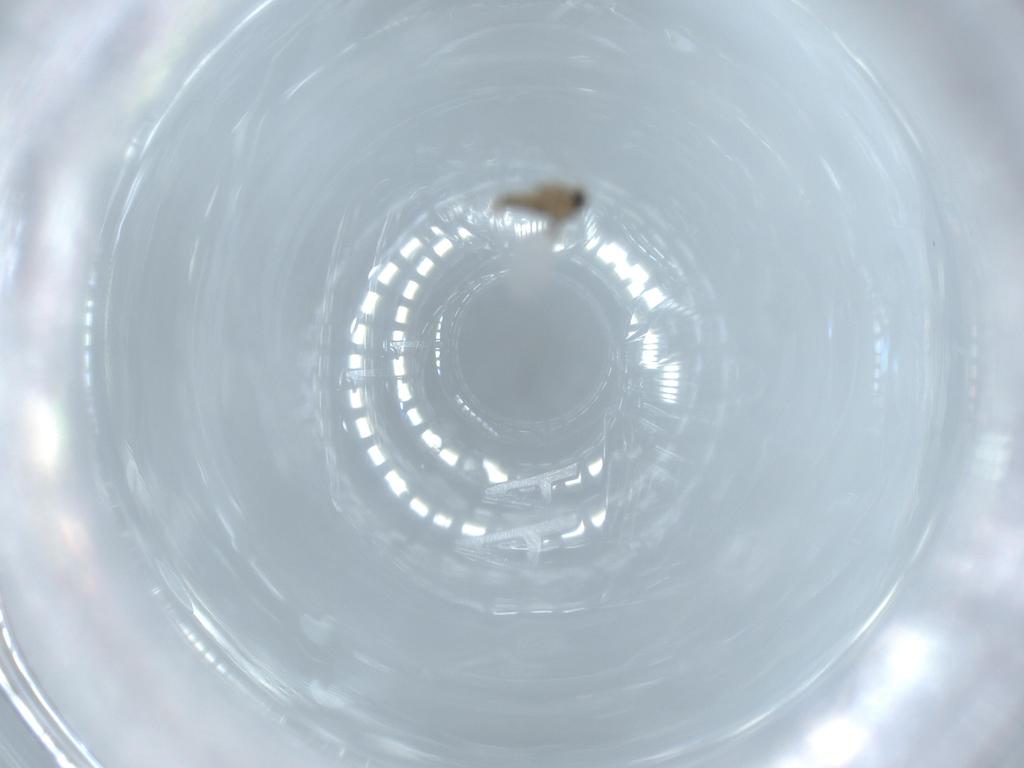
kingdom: Animalia
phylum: Arthropoda
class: Insecta
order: Diptera
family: Cecidomyiidae
